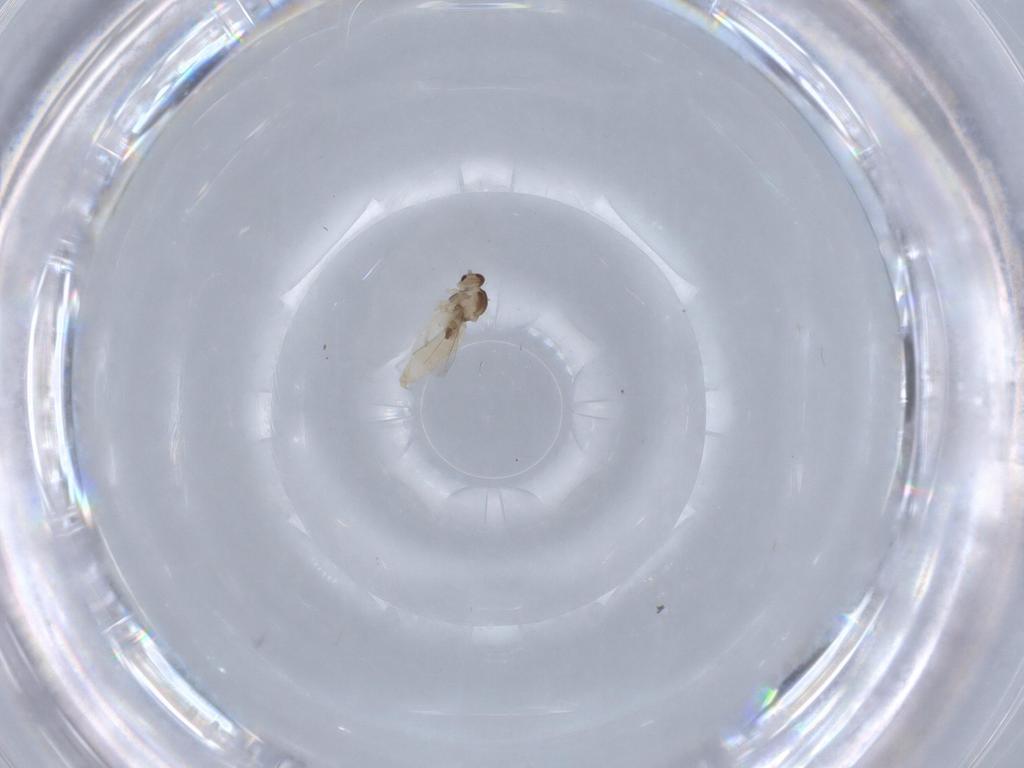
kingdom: Animalia
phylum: Arthropoda
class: Insecta
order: Diptera
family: Cecidomyiidae
